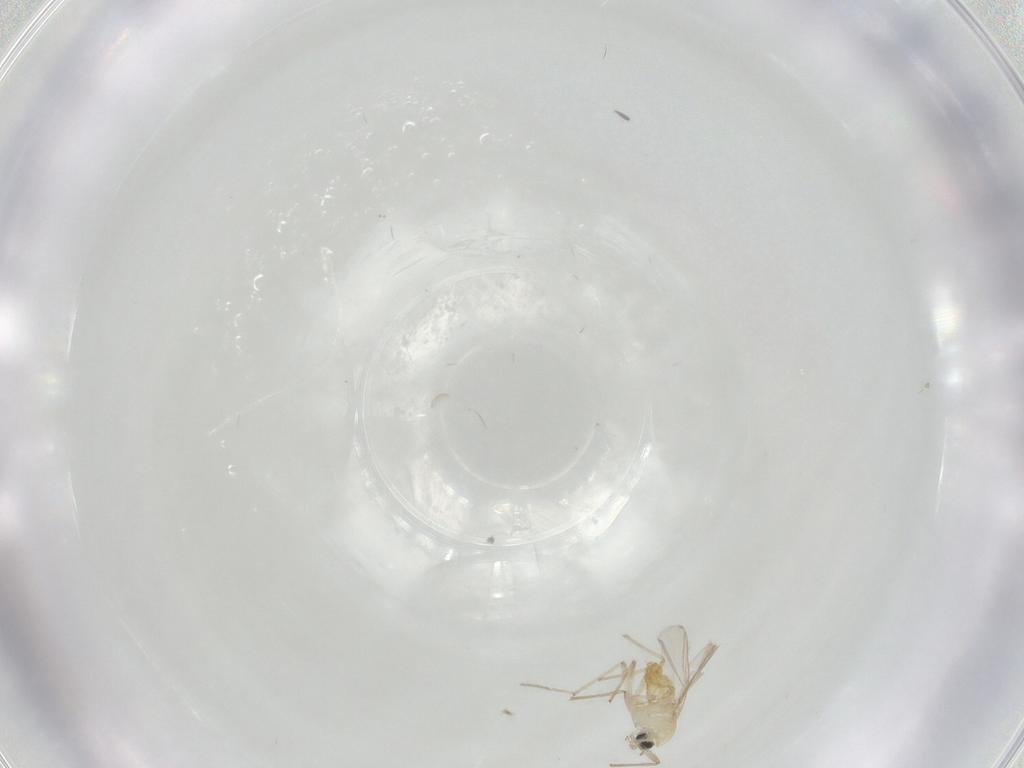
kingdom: Animalia
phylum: Arthropoda
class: Insecta
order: Diptera
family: Chironomidae
